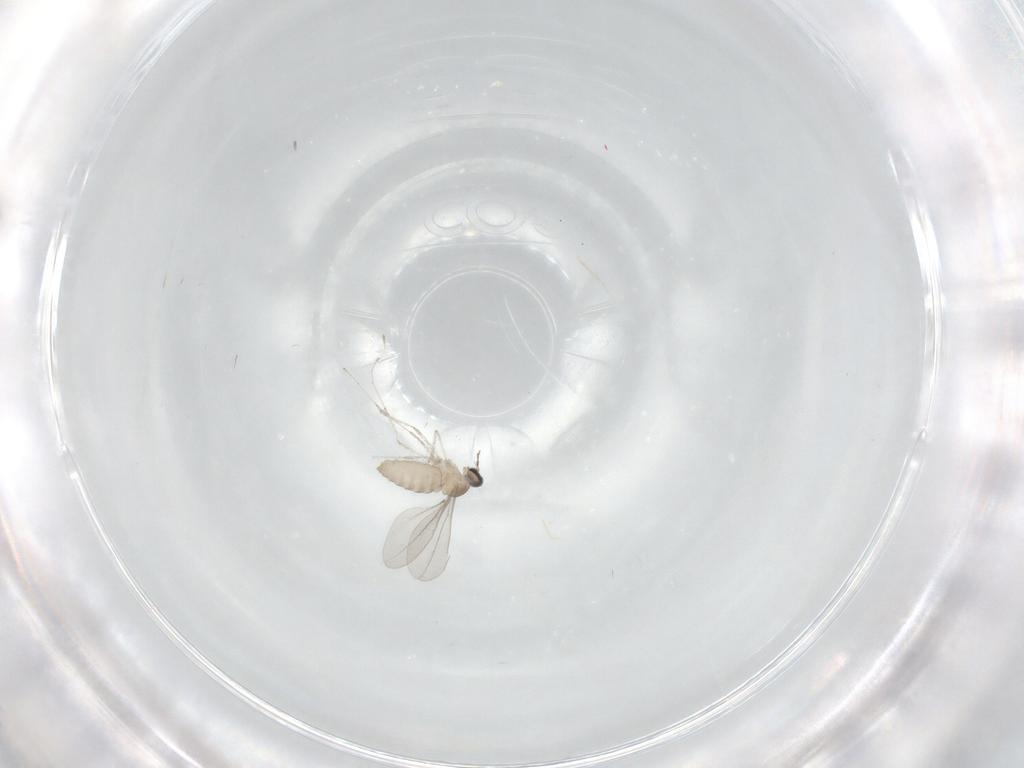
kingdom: Animalia
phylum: Arthropoda
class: Insecta
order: Diptera
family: Cecidomyiidae
